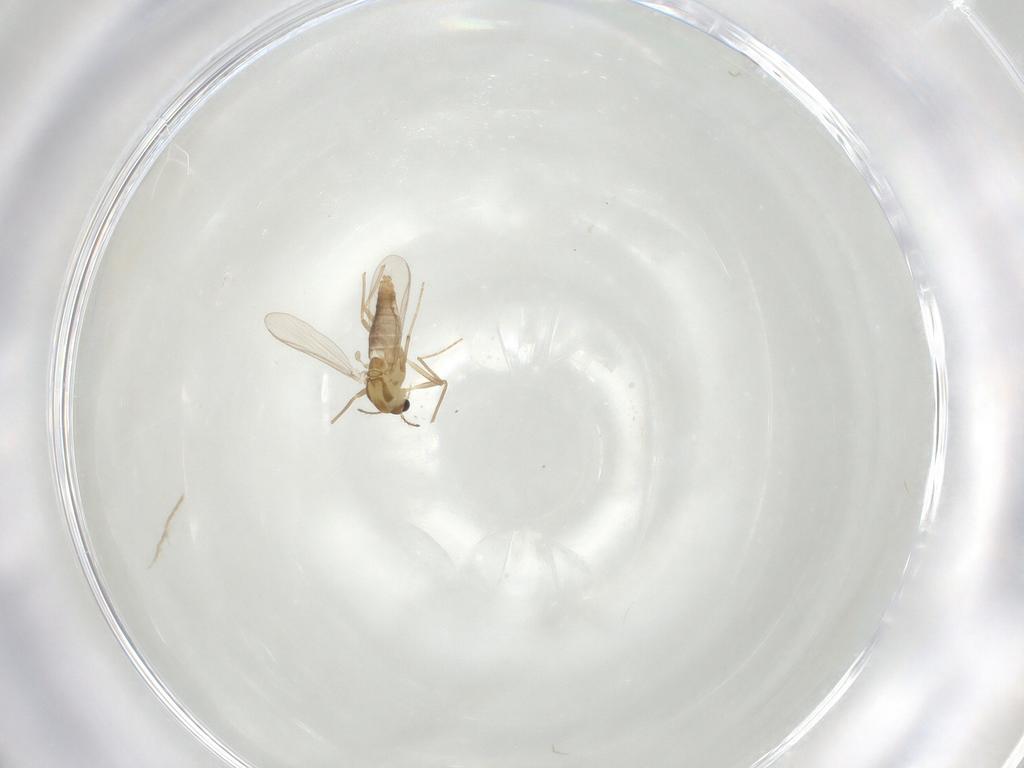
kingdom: Animalia
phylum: Arthropoda
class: Insecta
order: Diptera
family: Chironomidae
